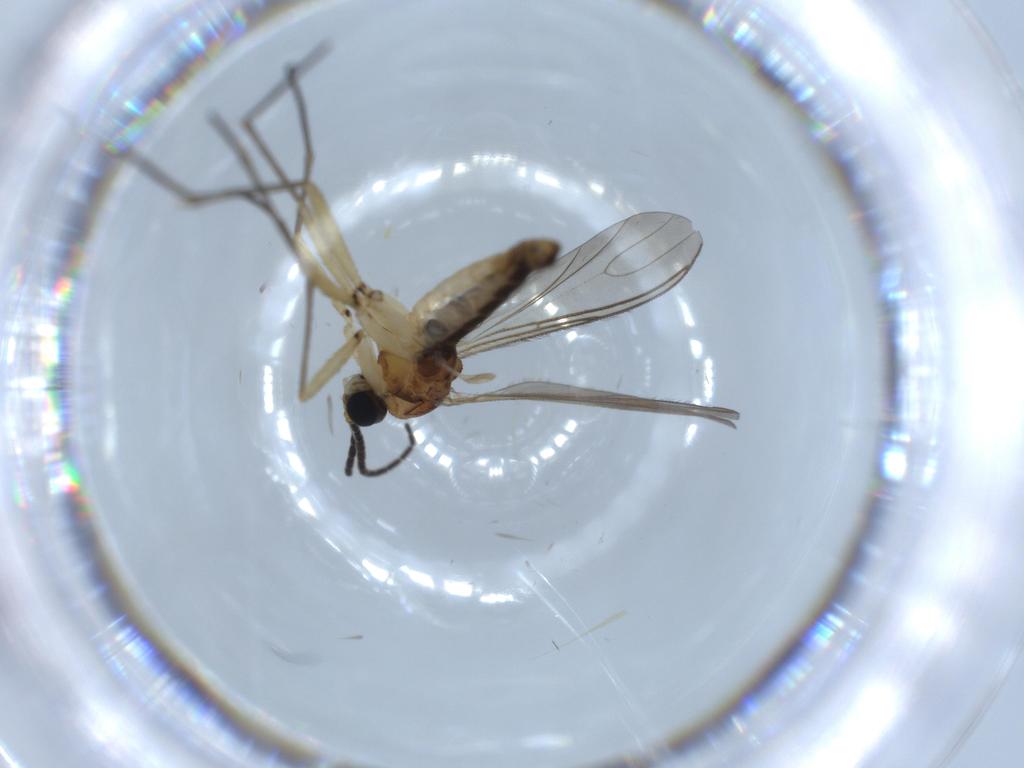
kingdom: Animalia
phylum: Arthropoda
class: Insecta
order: Diptera
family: Sciaridae
